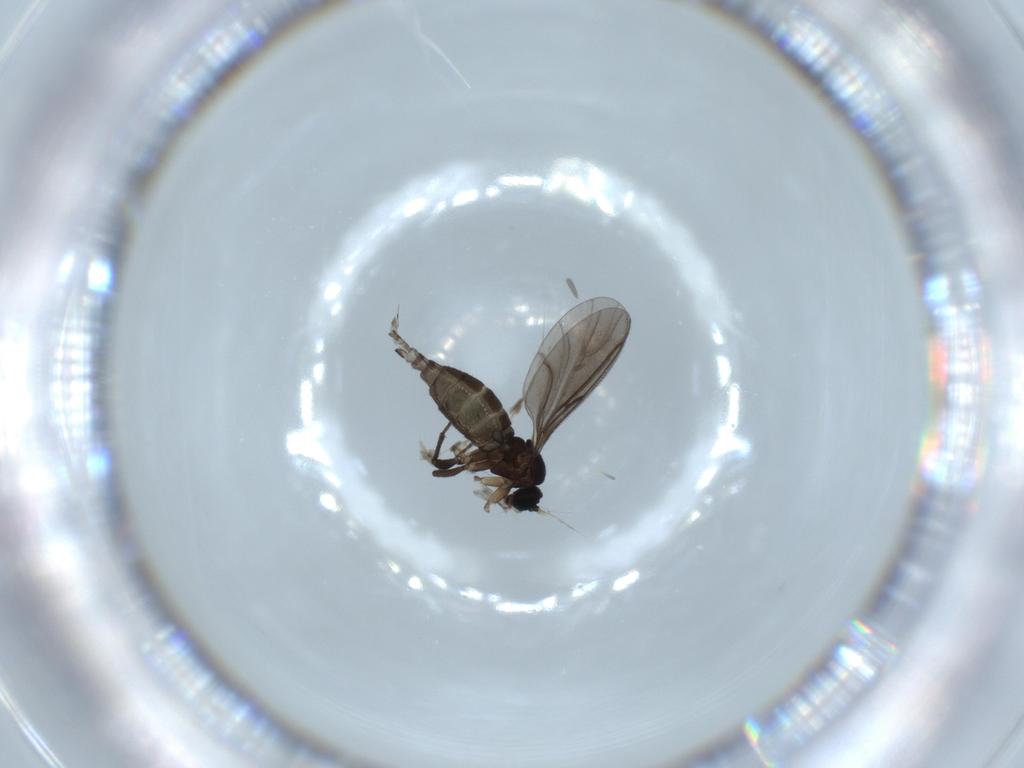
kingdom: Animalia
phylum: Arthropoda
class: Insecta
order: Diptera
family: Sciaridae
